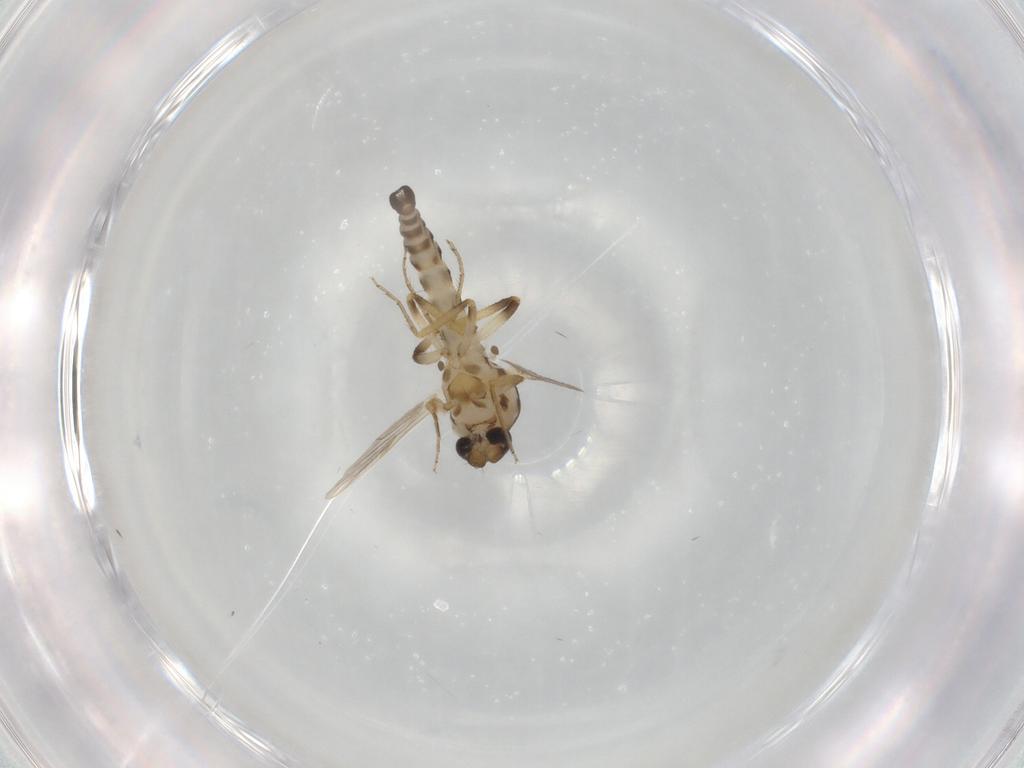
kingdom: Animalia
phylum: Arthropoda
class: Insecta
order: Diptera
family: Ceratopogonidae
